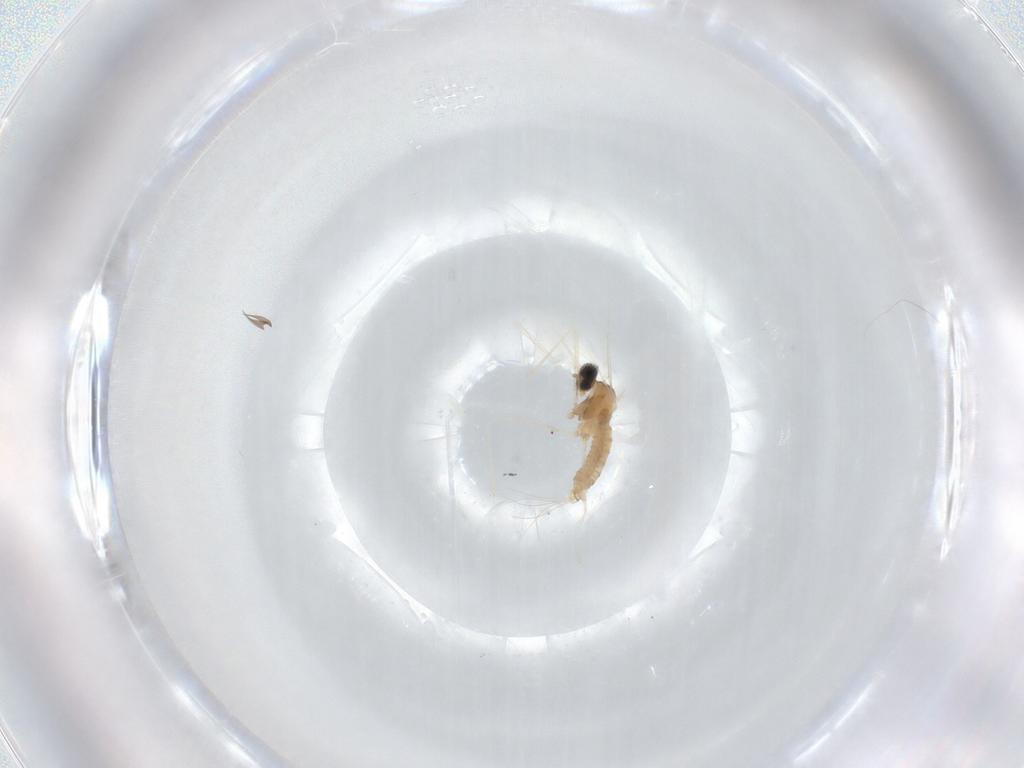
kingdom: Animalia
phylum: Arthropoda
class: Insecta
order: Diptera
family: Cecidomyiidae
